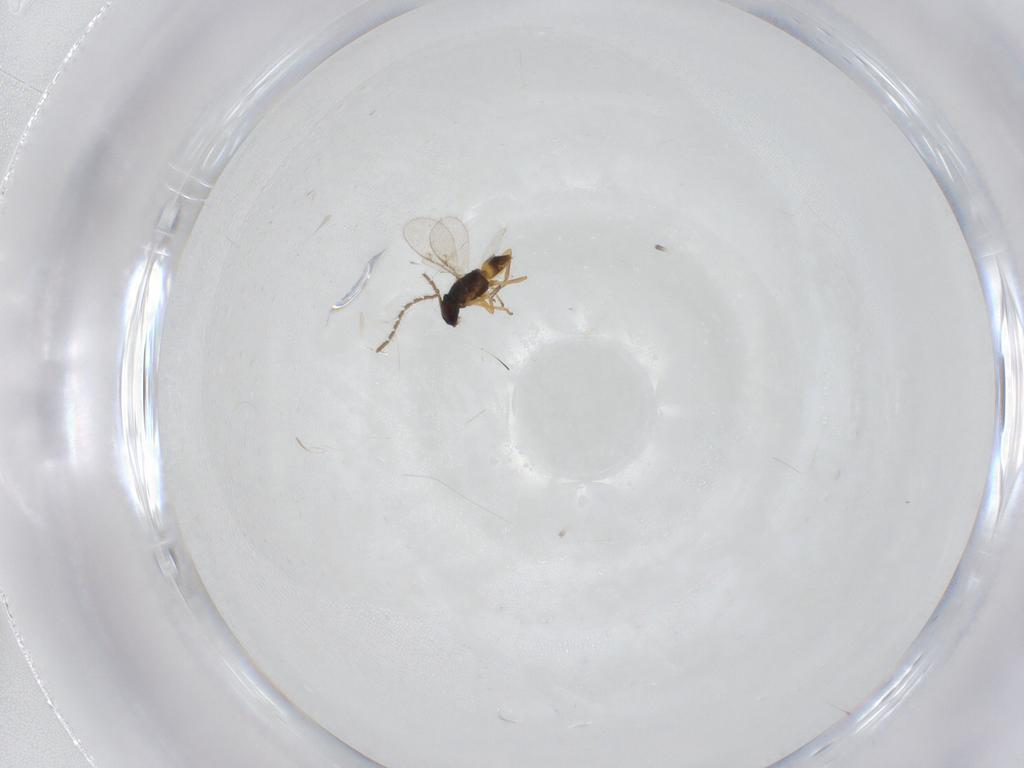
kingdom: Animalia
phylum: Arthropoda
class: Insecta
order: Hymenoptera
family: Encyrtidae
